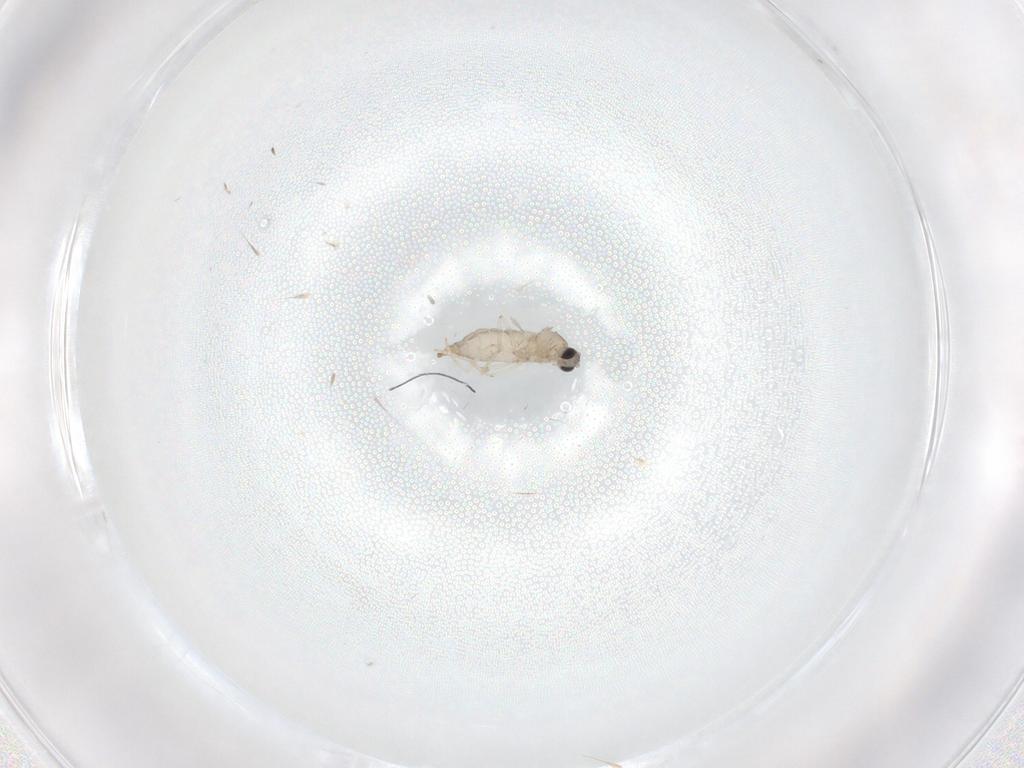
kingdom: Animalia
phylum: Arthropoda
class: Insecta
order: Diptera
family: Cecidomyiidae
